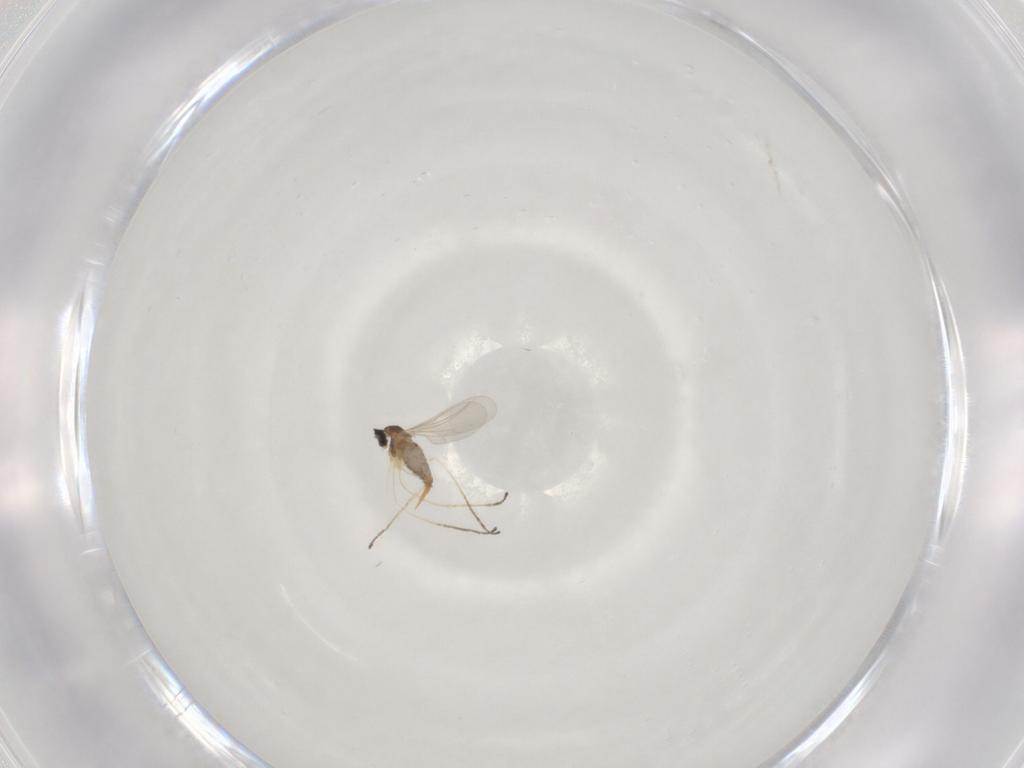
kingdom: Animalia
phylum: Arthropoda
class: Insecta
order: Diptera
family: Cecidomyiidae
